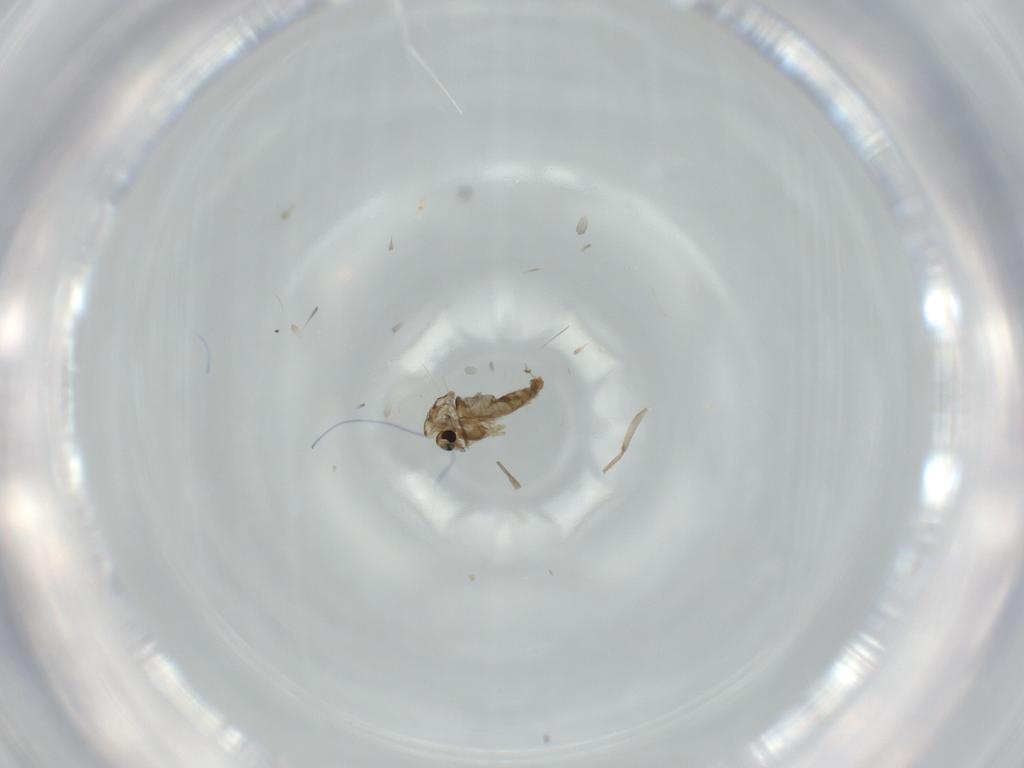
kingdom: Animalia
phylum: Arthropoda
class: Insecta
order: Diptera
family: Chironomidae
